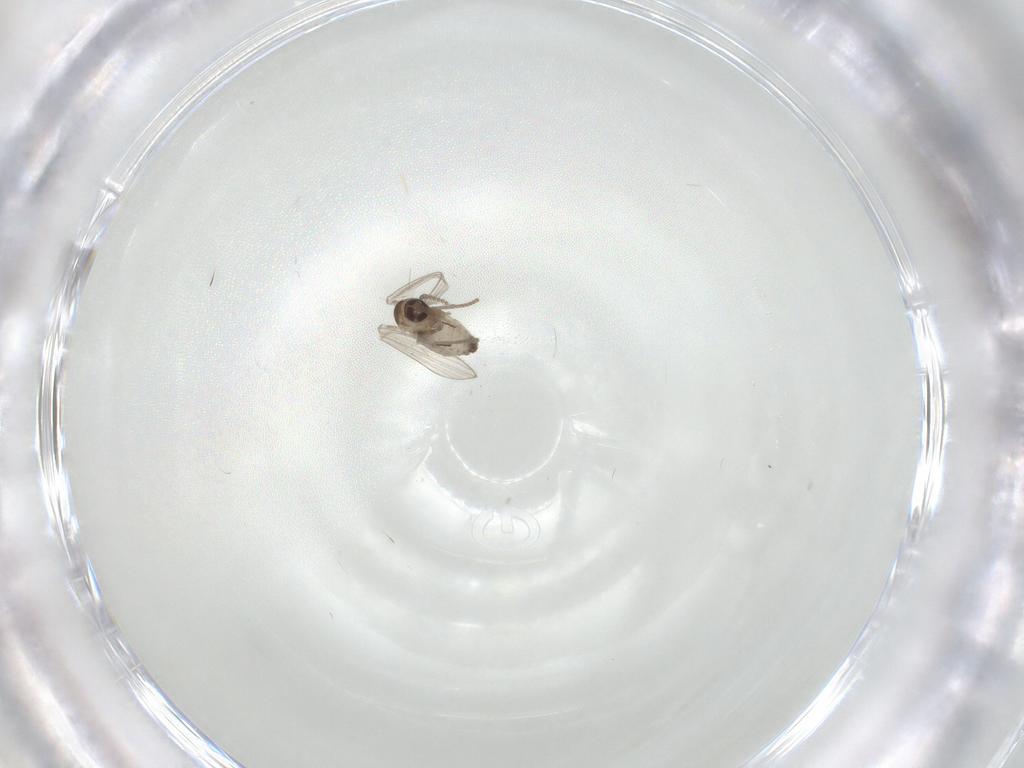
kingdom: Animalia
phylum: Arthropoda
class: Insecta
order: Diptera
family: Psychodidae
